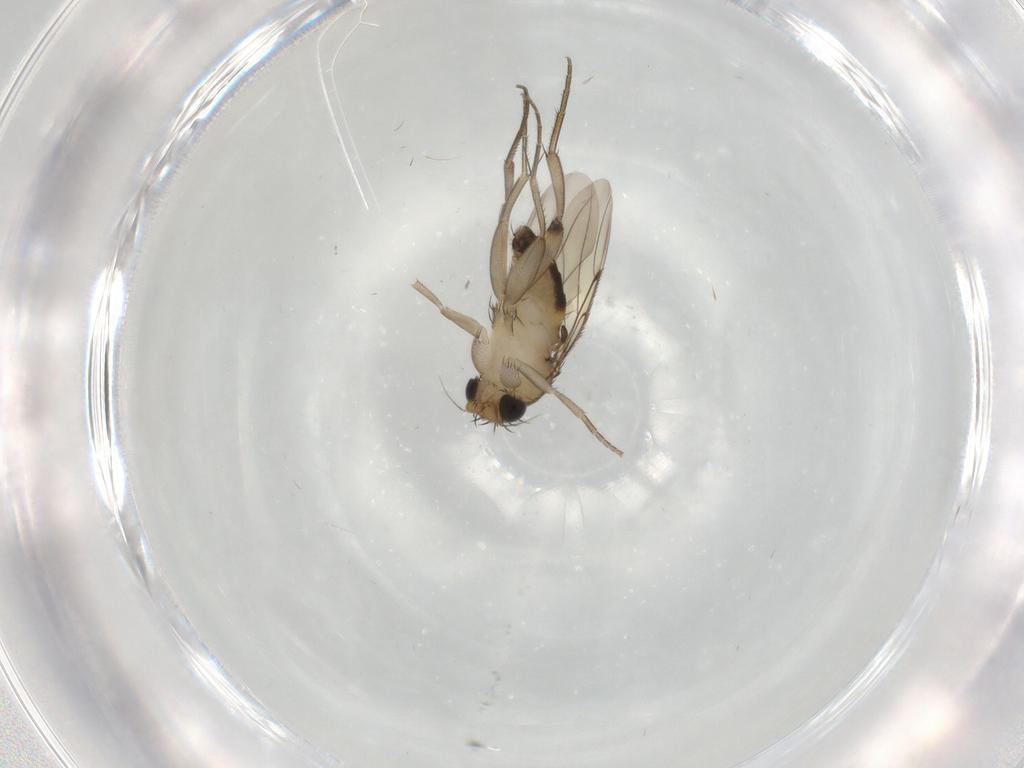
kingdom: Animalia
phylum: Arthropoda
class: Insecta
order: Diptera
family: Phoridae
